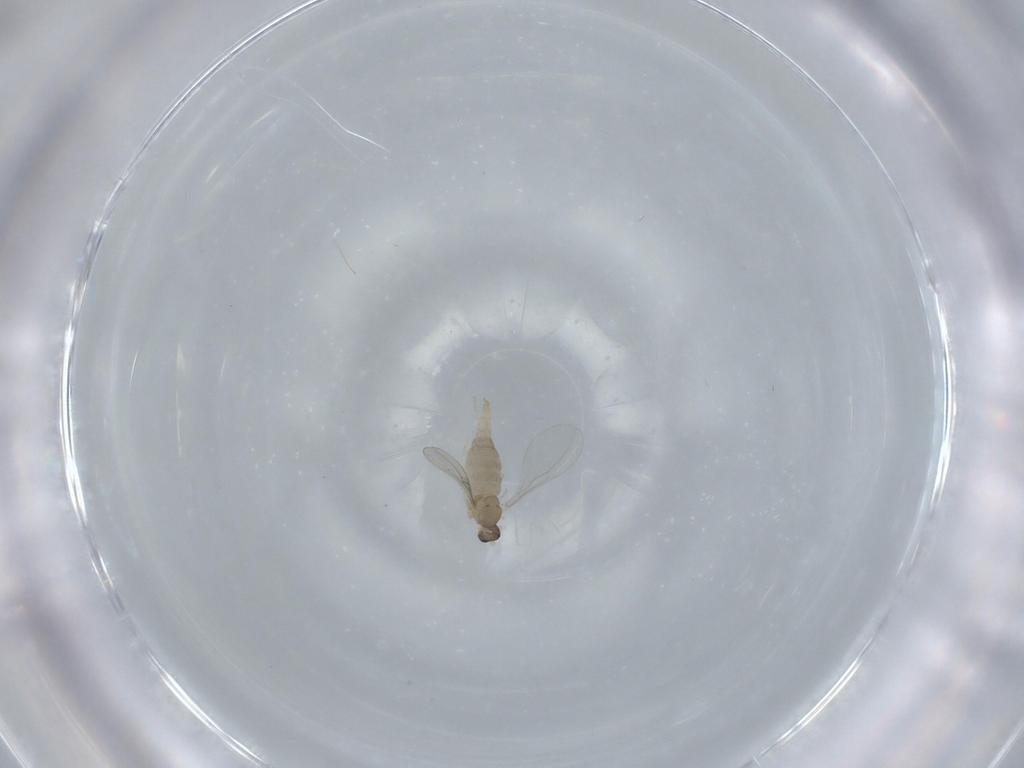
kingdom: Animalia
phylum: Arthropoda
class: Insecta
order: Diptera
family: Cecidomyiidae
